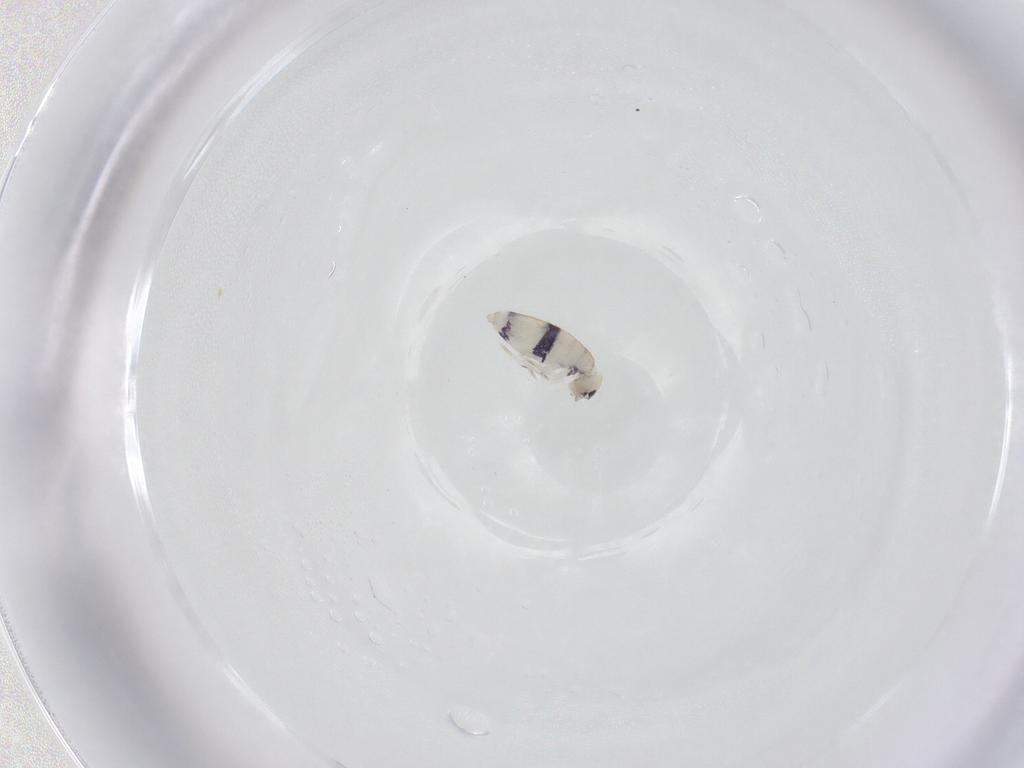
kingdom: Animalia
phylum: Arthropoda
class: Collembola
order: Entomobryomorpha
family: Entomobryidae
